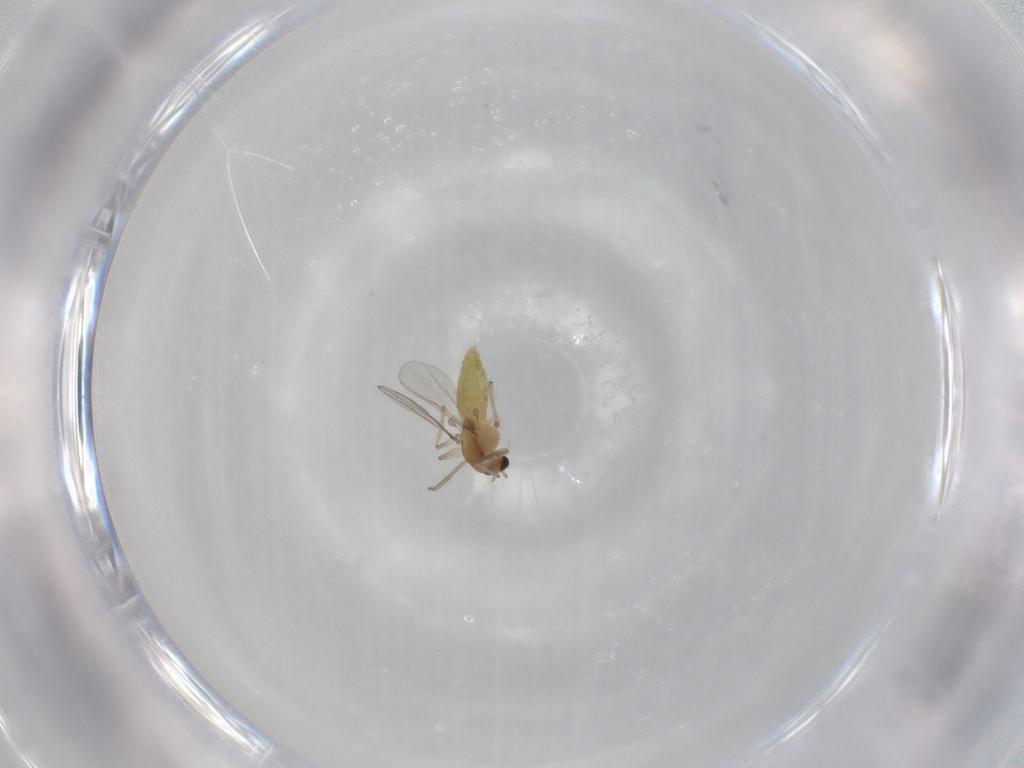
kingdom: Animalia
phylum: Arthropoda
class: Insecta
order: Diptera
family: Chironomidae
